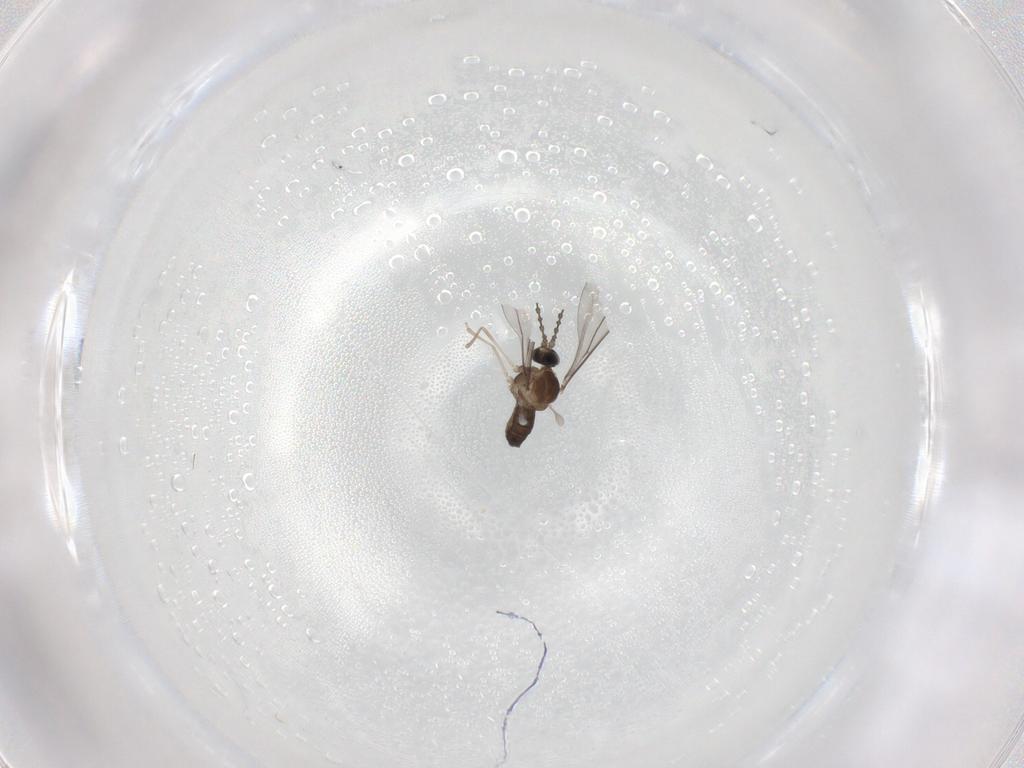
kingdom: Animalia
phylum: Arthropoda
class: Insecta
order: Diptera
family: Cecidomyiidae
